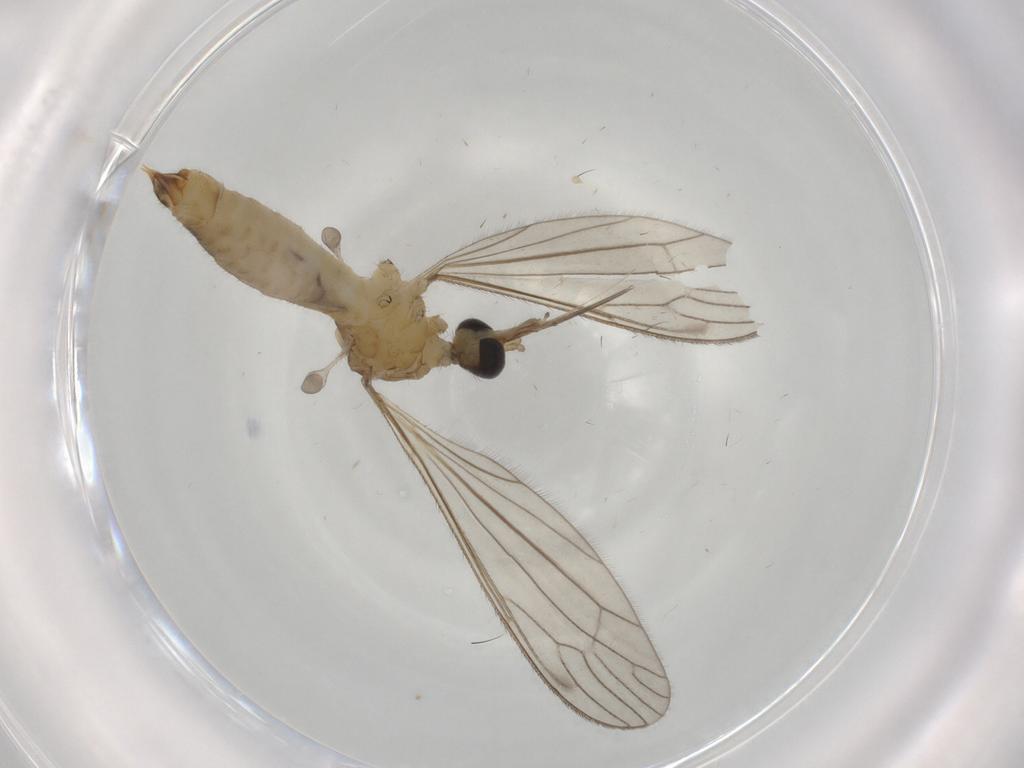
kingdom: Animalia
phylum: Arthropoda
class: Insecta
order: Diptera
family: Limoniidae
